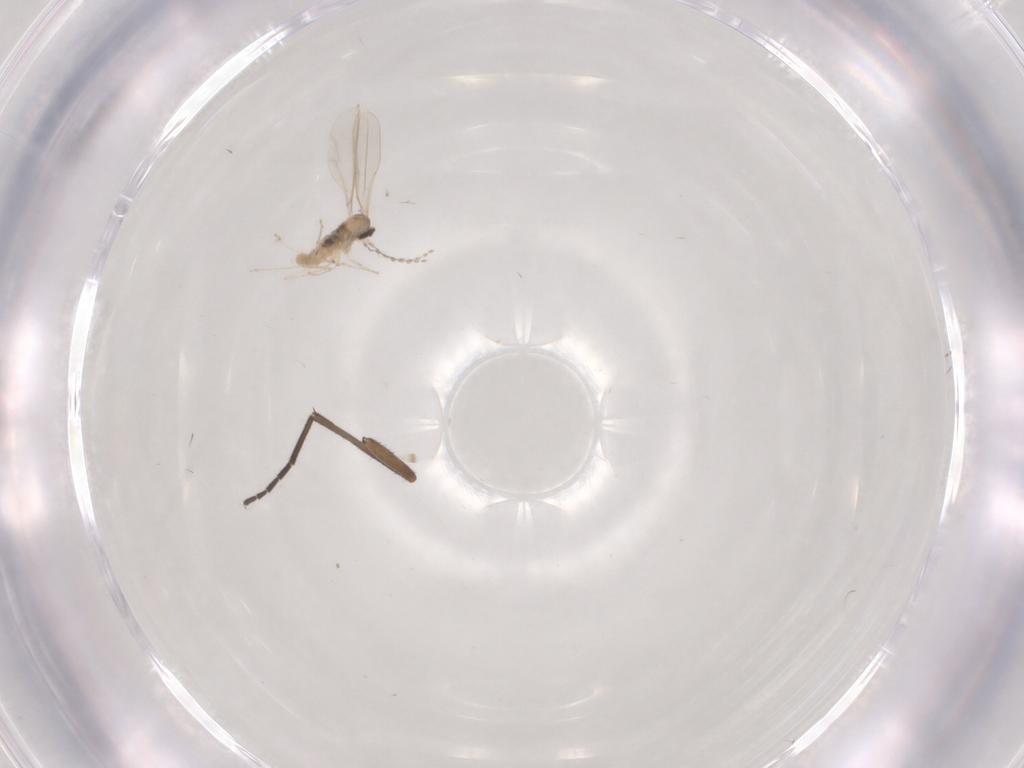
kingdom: Animalia
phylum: Arthropoda
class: Insecta
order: Diptera
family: Sciaridae
